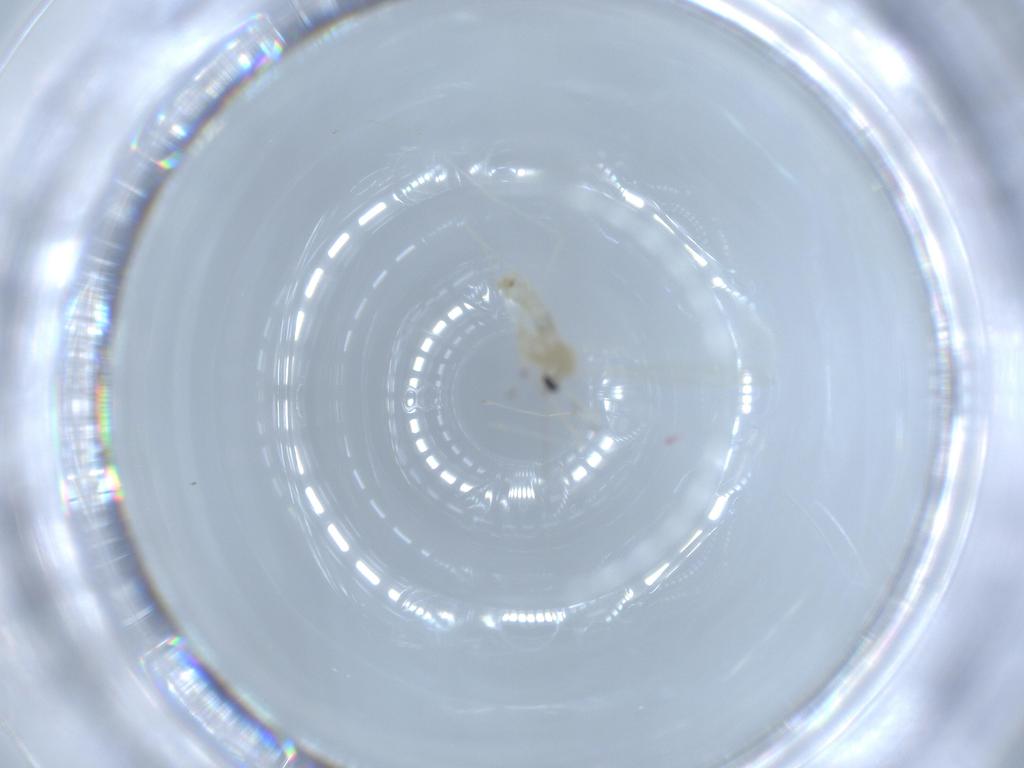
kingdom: Animalia
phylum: Arthropoda
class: Insecta
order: Diptera
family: Cecidomyiidae
